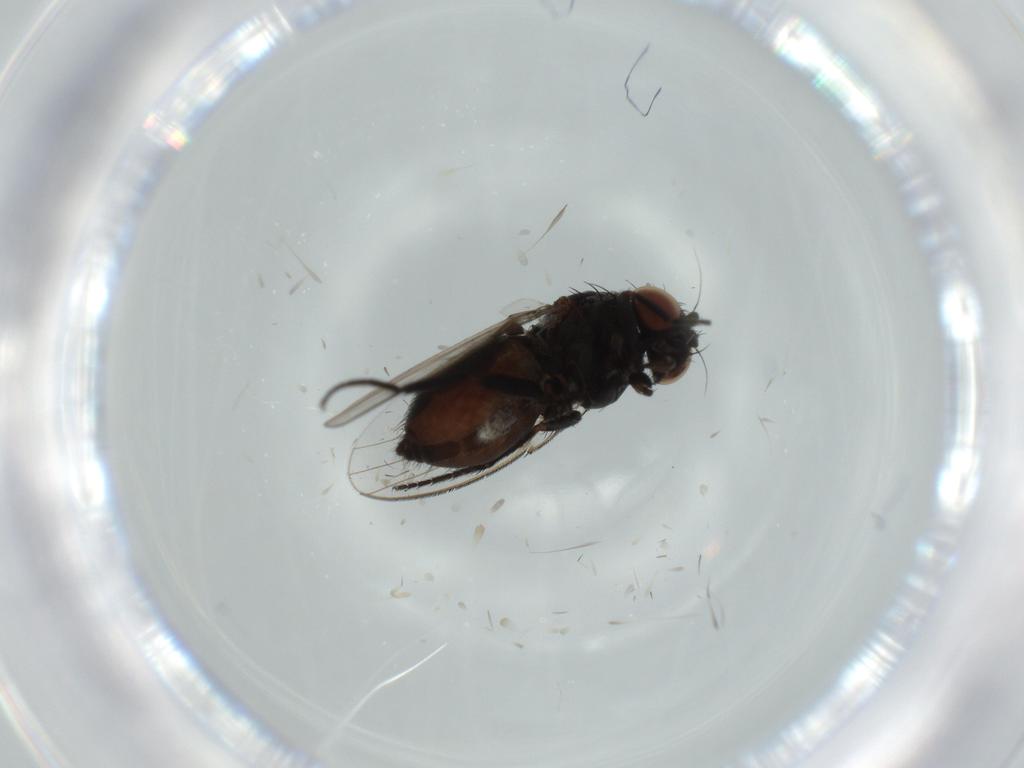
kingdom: Animalia
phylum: Arthropoda
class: Insecta
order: Diptera
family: Milichiidae
